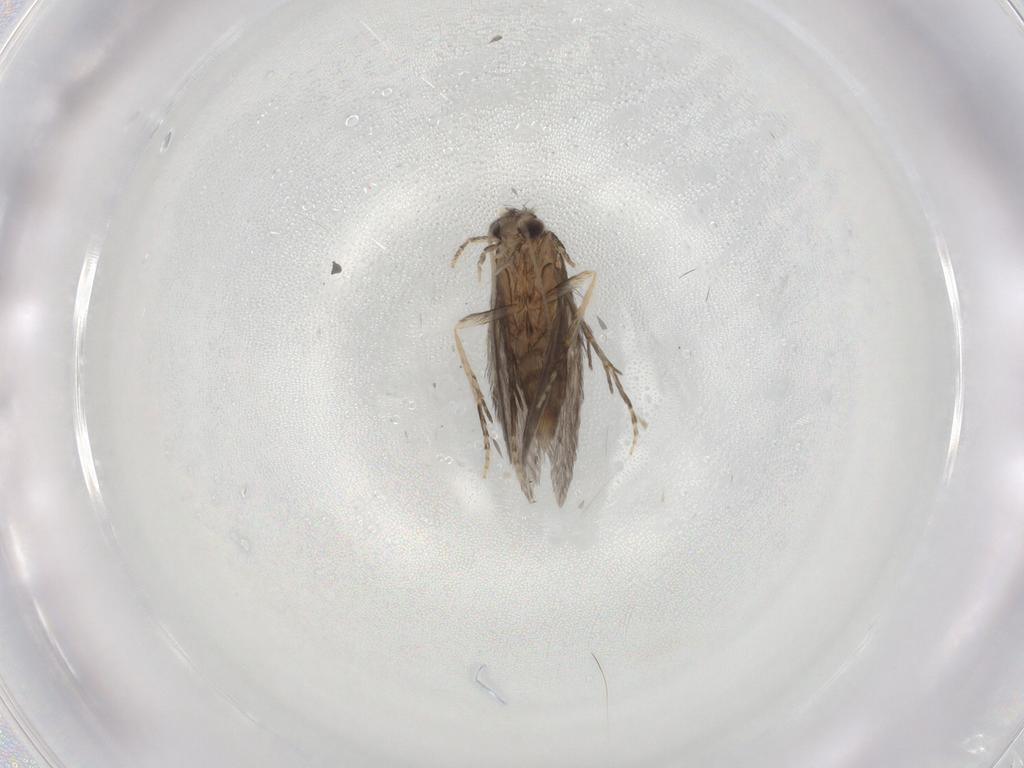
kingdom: Animalia
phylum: Arthropoda
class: Insecta
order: Trichoptera
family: Hydroptilidae
